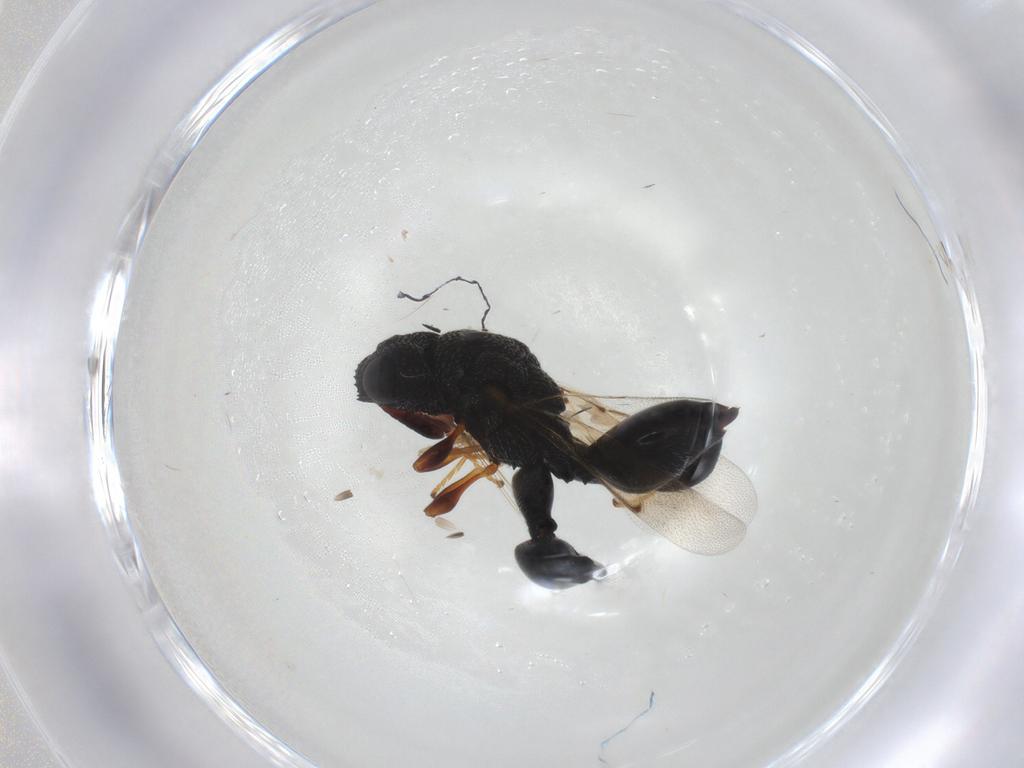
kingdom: Animalia
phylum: Arthropoda
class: Insecta
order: Hymenoptera
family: Chalcididae
